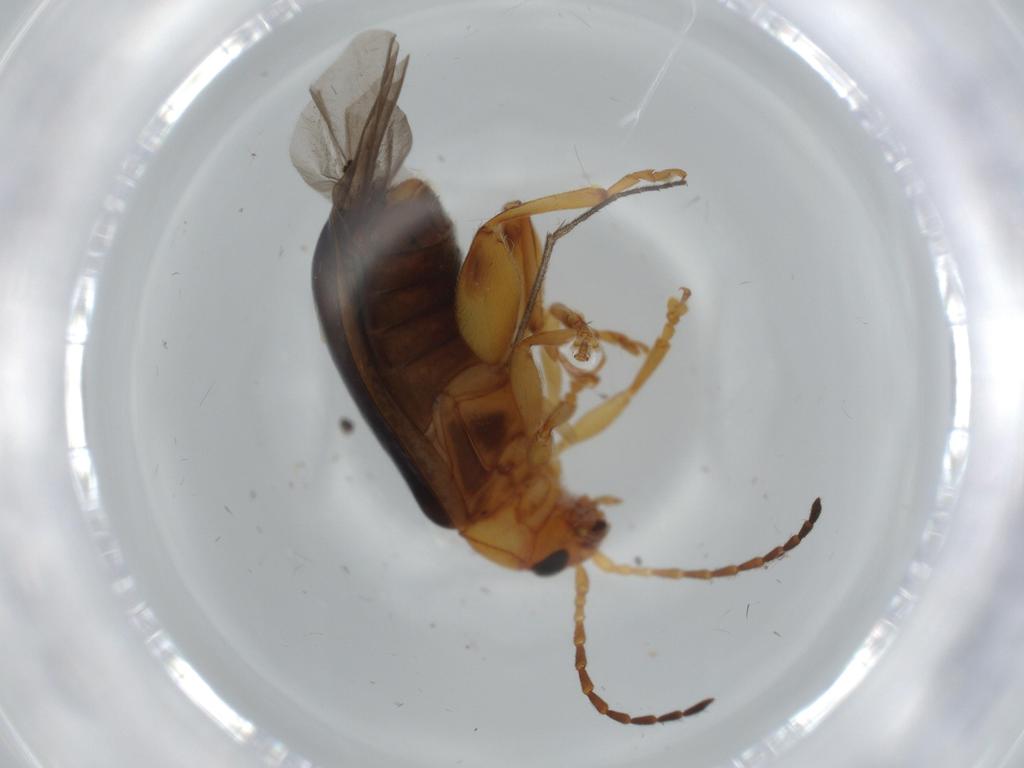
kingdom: Animalia
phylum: Arthropoda
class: Insecta
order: Coleoptera
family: Chrysomelidae
